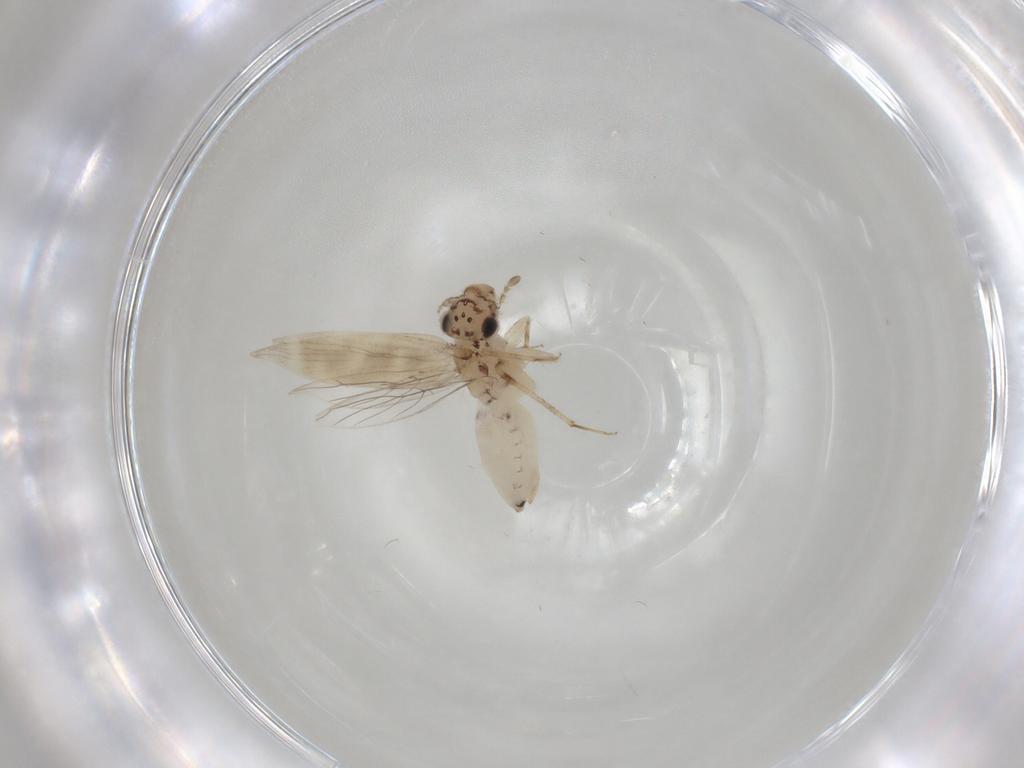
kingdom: Animalia
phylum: Arthropoda
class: Insecta
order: Psocodea
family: Lepidopsocidae
